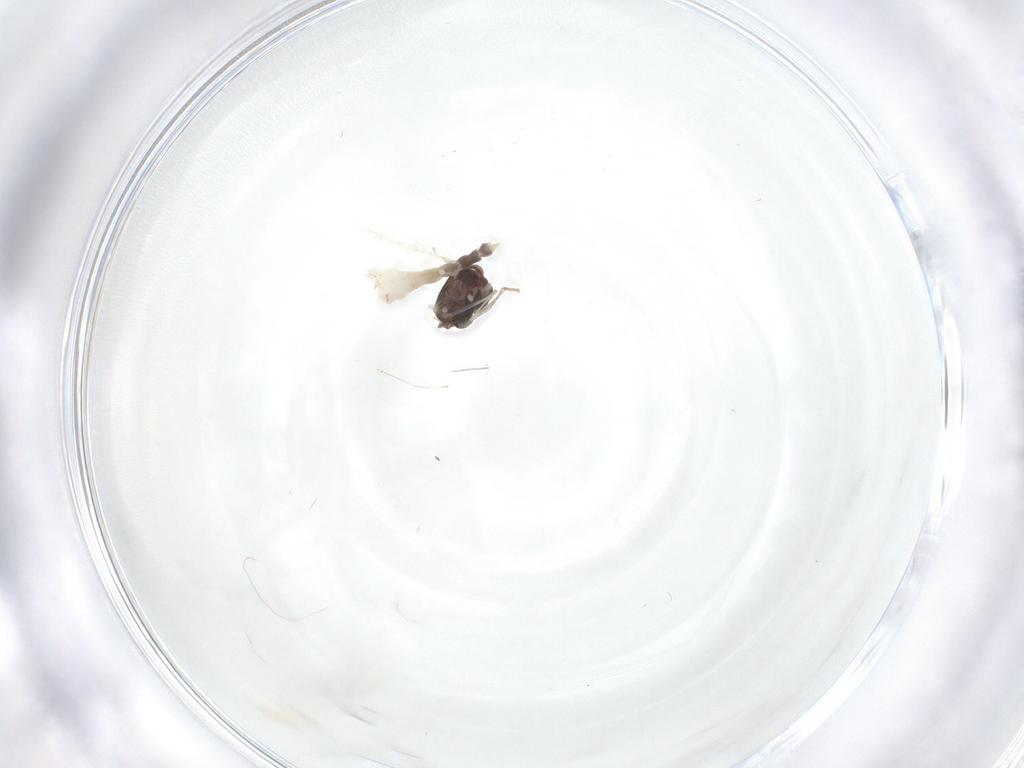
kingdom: Animalia
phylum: Arthropoda
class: Insecta
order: Diptera
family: Chironomidae
